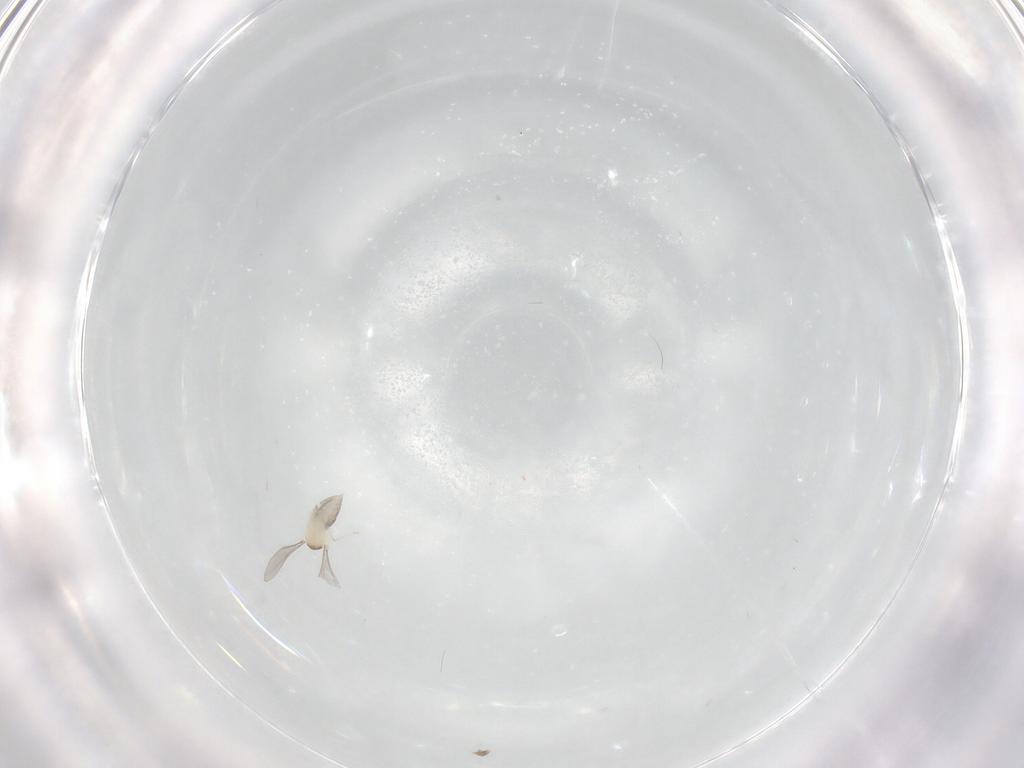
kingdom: Animalia
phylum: Arthropoda
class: Insecta
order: Diptera
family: Cecidomyiidae
